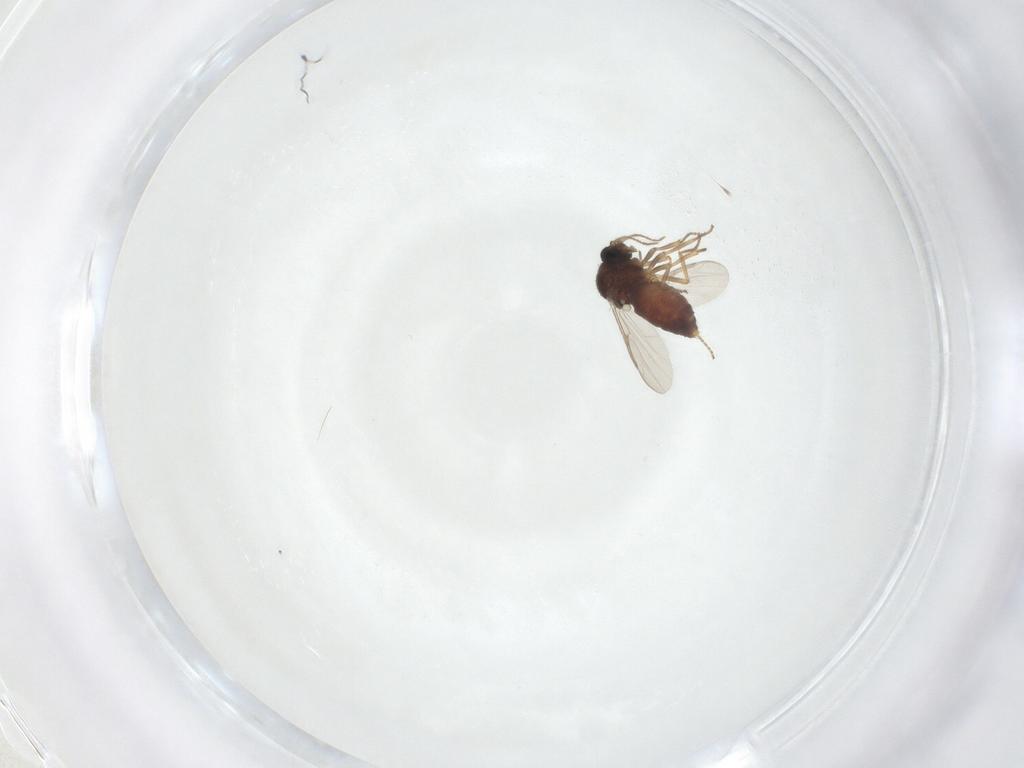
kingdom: Animalia
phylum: Arthropoda
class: Insecta
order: Diptera
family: Ceratopogonidae
